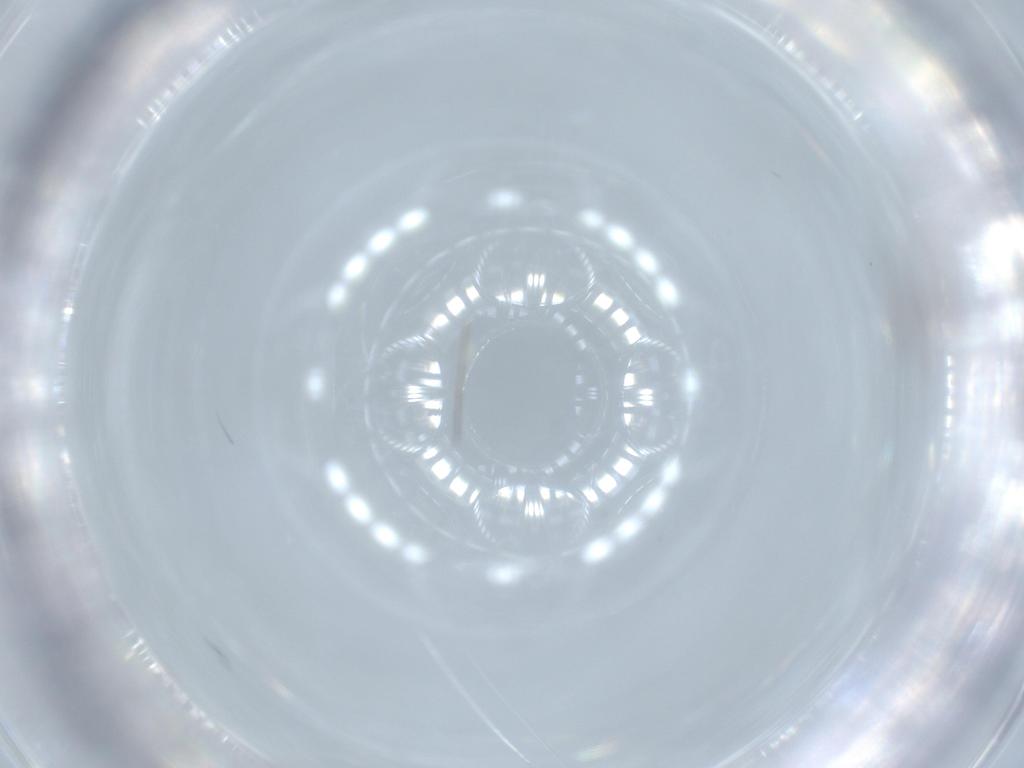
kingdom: Animalia
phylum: Arthropoda
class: Insecta
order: Diptera
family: Cecidomyiidae
